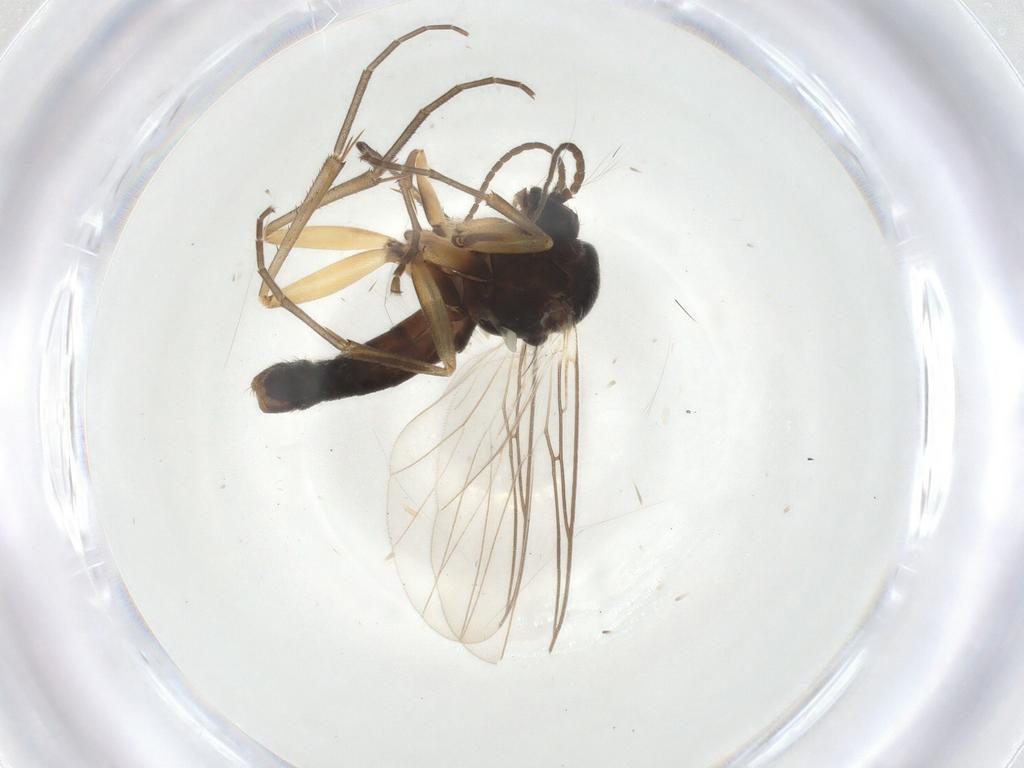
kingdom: Animalia
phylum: Arthropoda
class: Insecta
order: Diptera
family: Mycetophilidae
